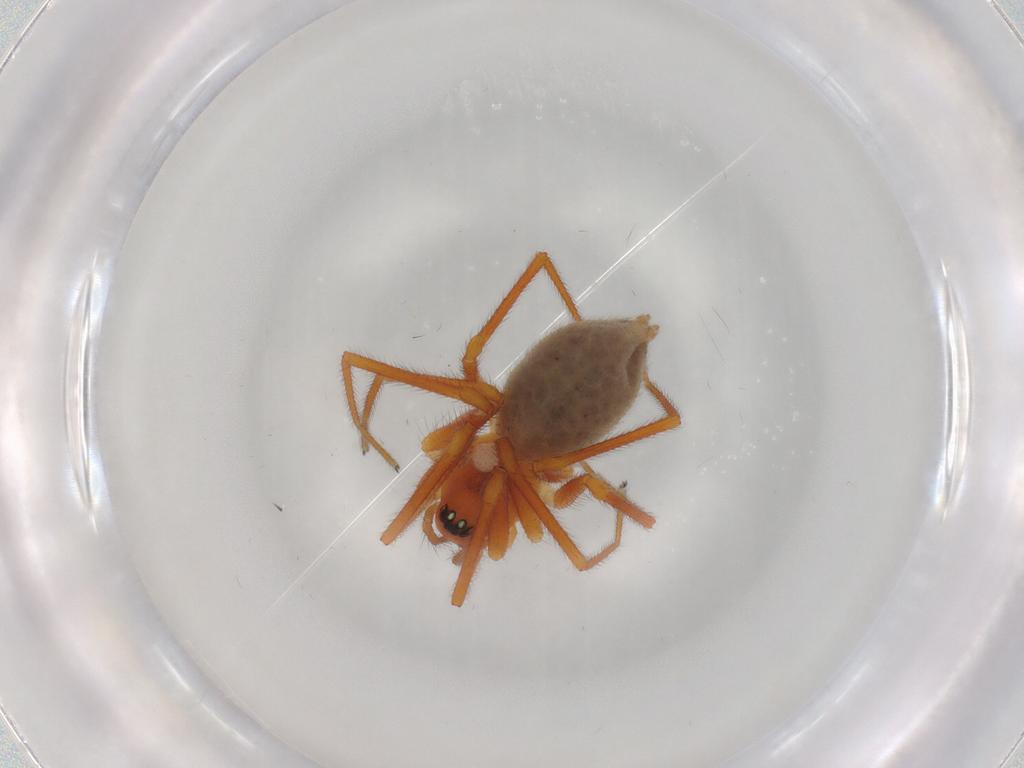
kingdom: Animalia
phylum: Arthropoda
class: Arachnida
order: Araneae
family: Linyphiidae
